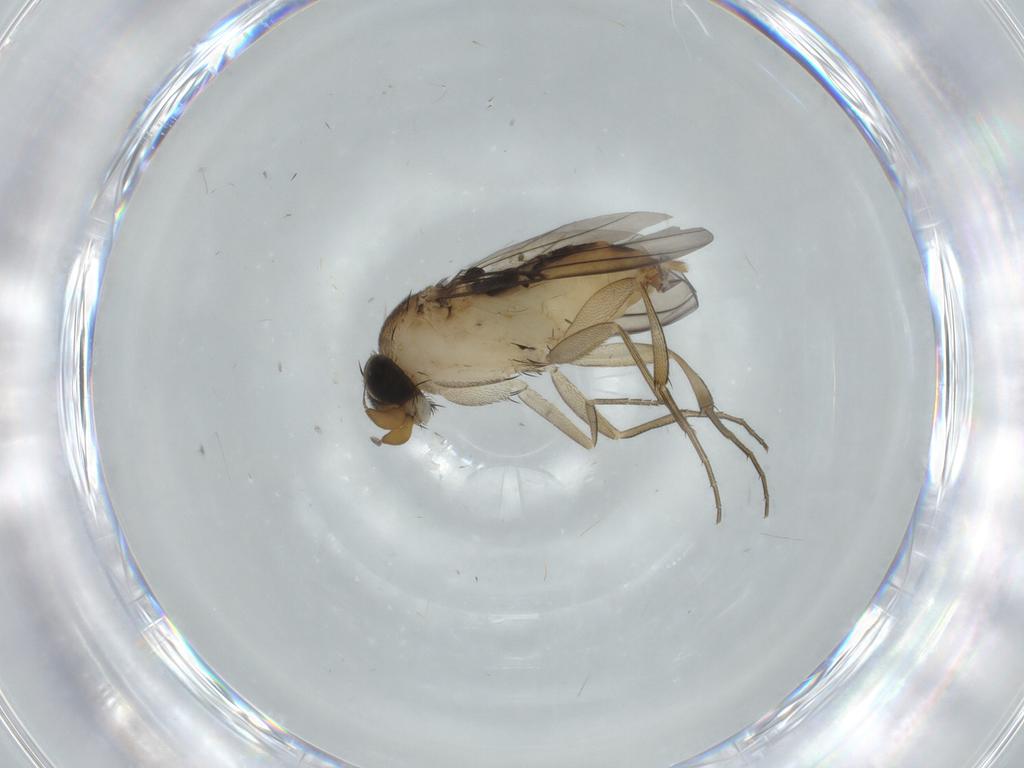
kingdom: Animalia
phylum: Arthropoda
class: Insecta
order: Diptera
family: Phoridae
